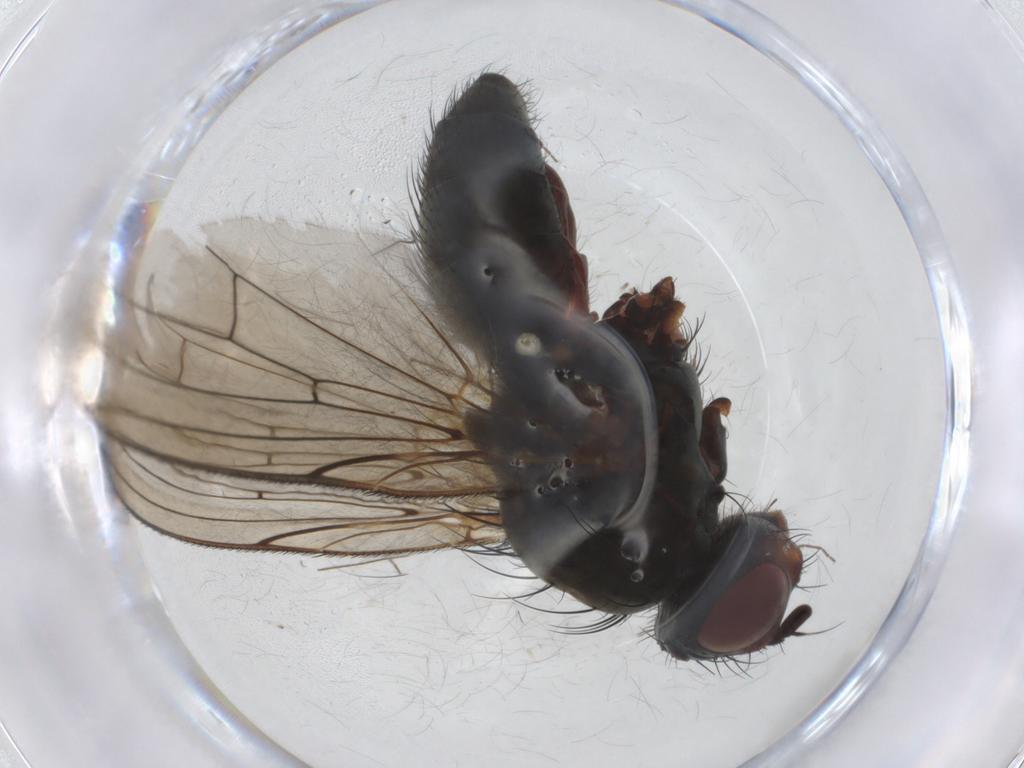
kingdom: Animalia
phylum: Arthropoda
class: Insecta
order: Diptera
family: Anthomyiidae
